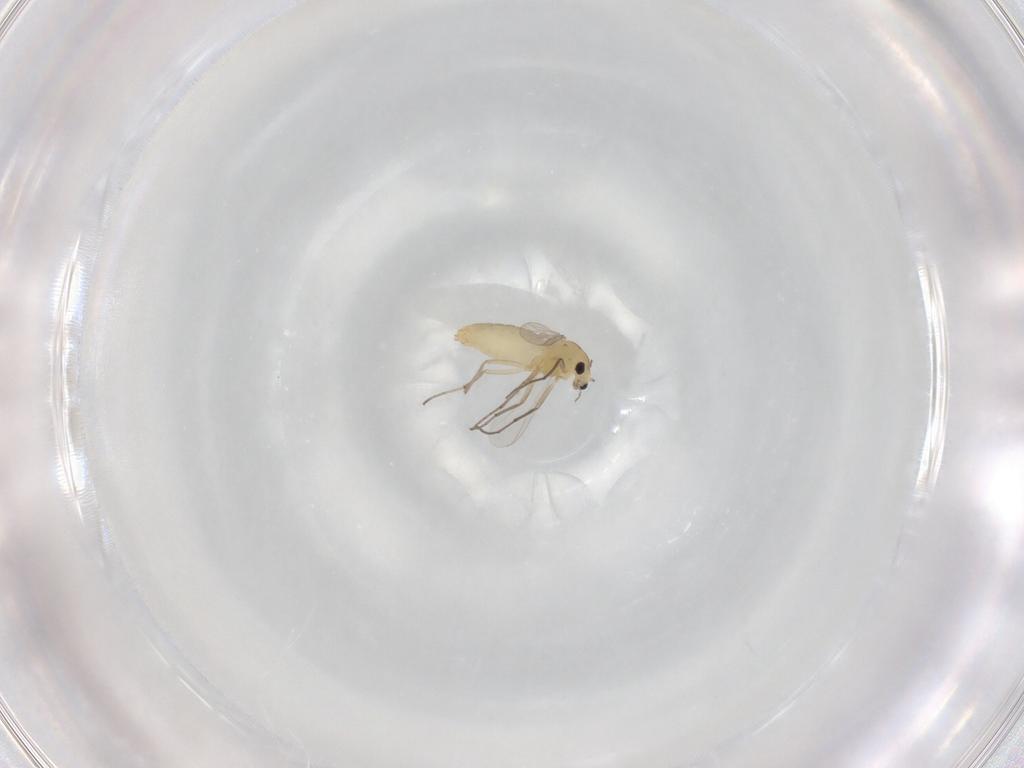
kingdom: Animalia
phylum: Arthropoda
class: Insecta
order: Diptera
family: Chironomidae
